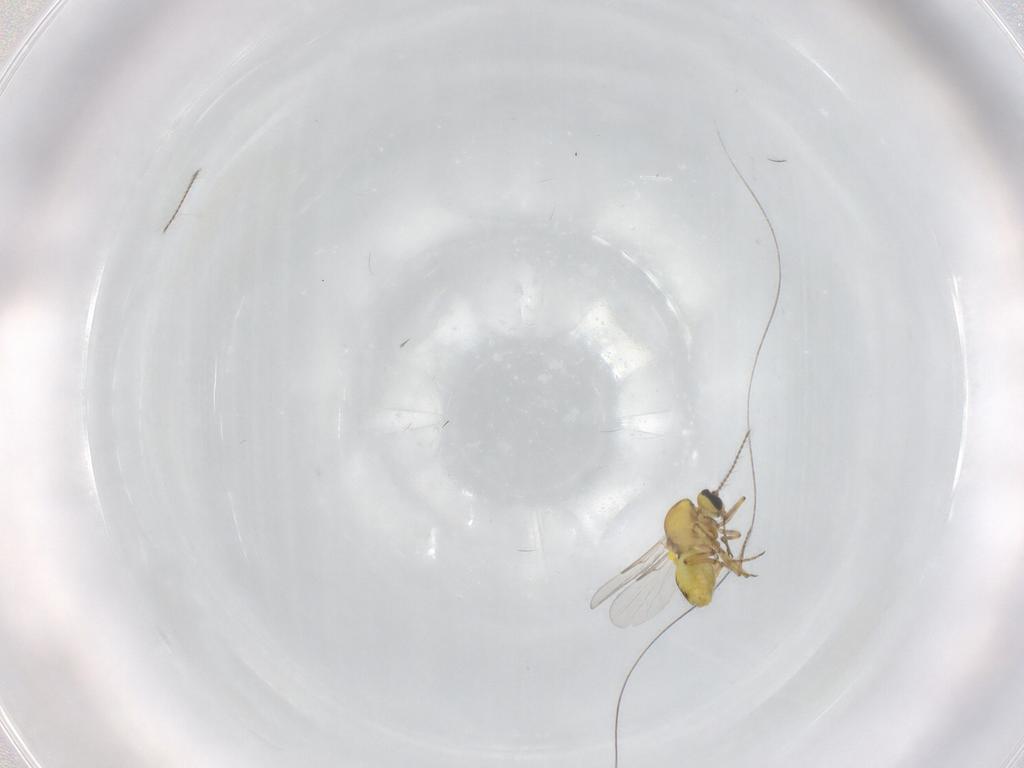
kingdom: Animalia
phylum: Arthropoda
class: Insecta
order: Diptera
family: Ceratopogonidae
